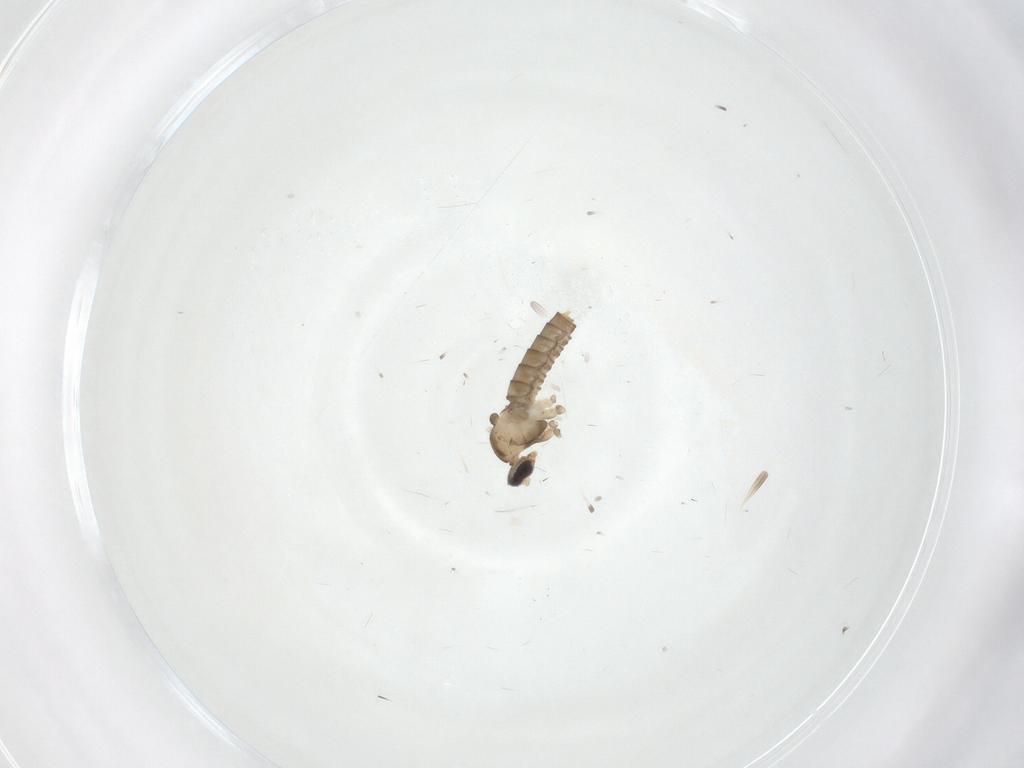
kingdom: Animalia
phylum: Arthropoda
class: Insecta
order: Diptera
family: Cecidomyiidae
